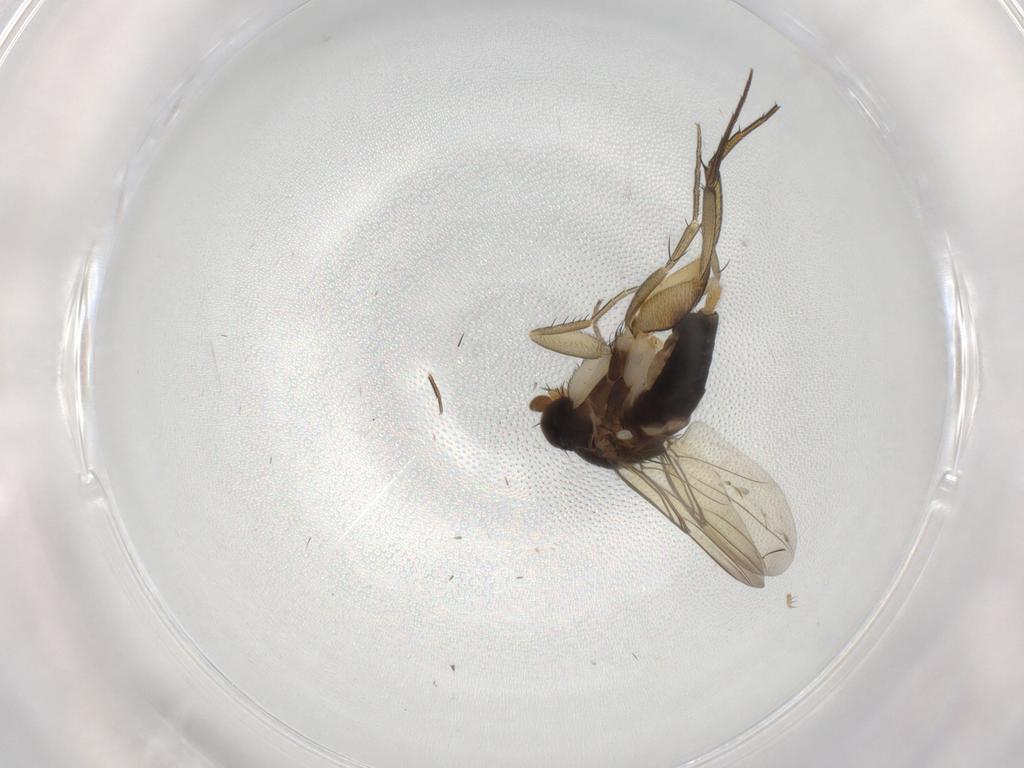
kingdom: Animalia
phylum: Arthropoda
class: Insecta
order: Diptera
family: Phoridae
